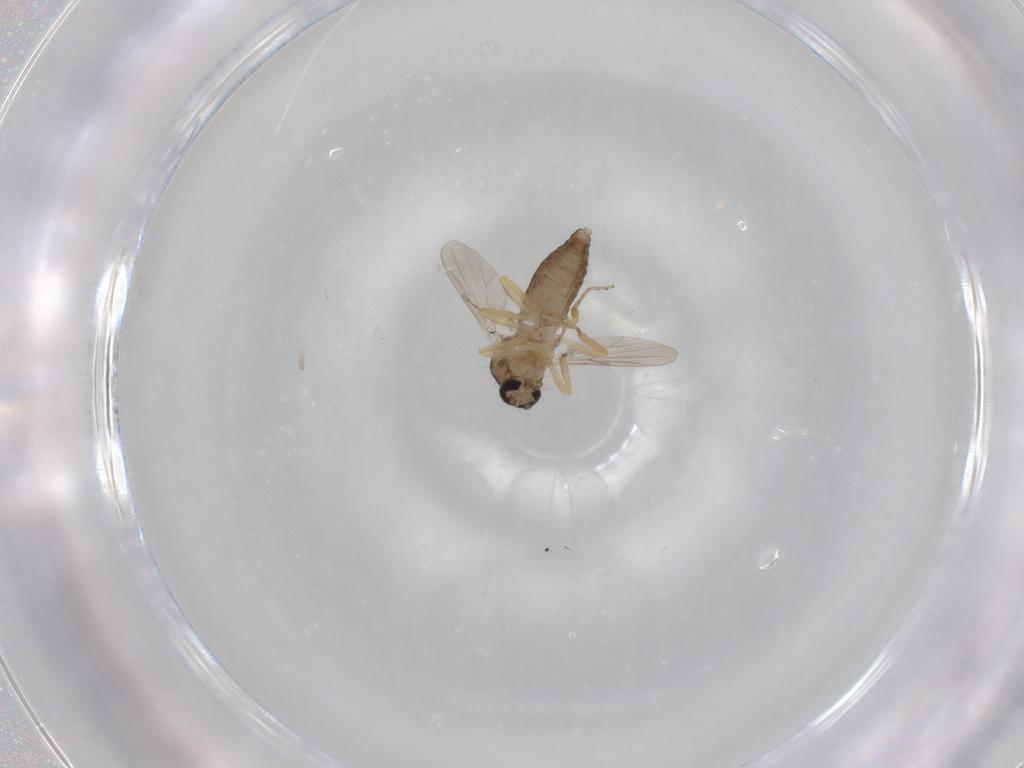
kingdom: Animalia
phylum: Arthropoda
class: Insecta
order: Diptera
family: Ceratopogonidae
